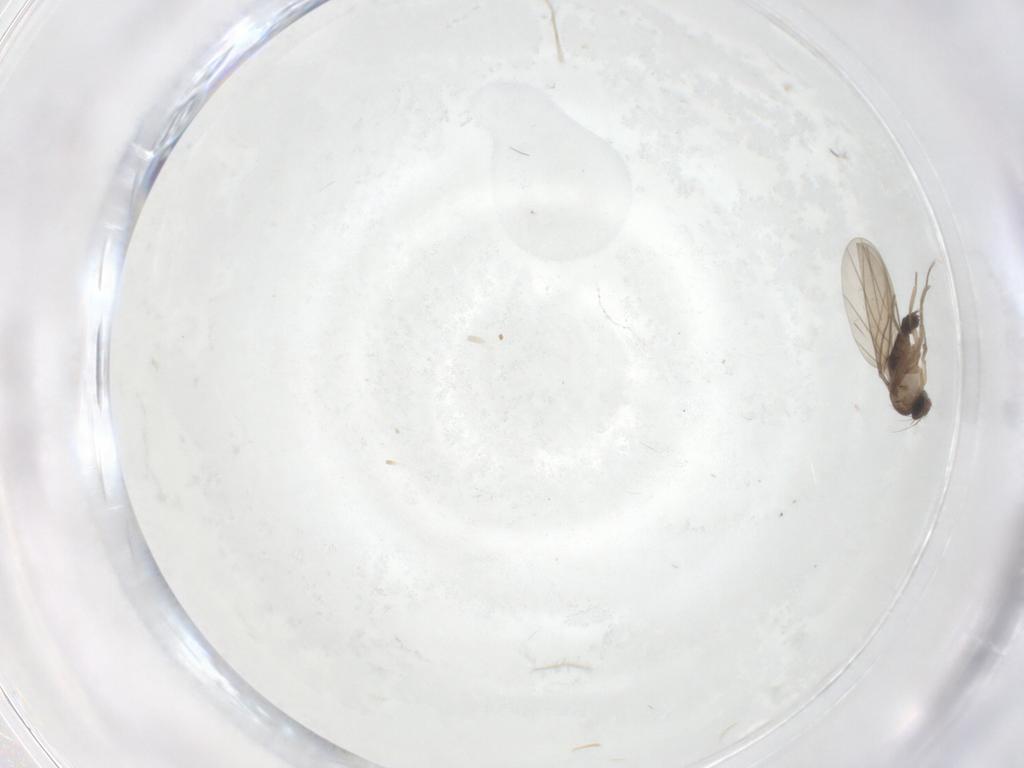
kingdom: Animalia
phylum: Arthropoda
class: Insecta
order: Diptera
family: Phoridae
